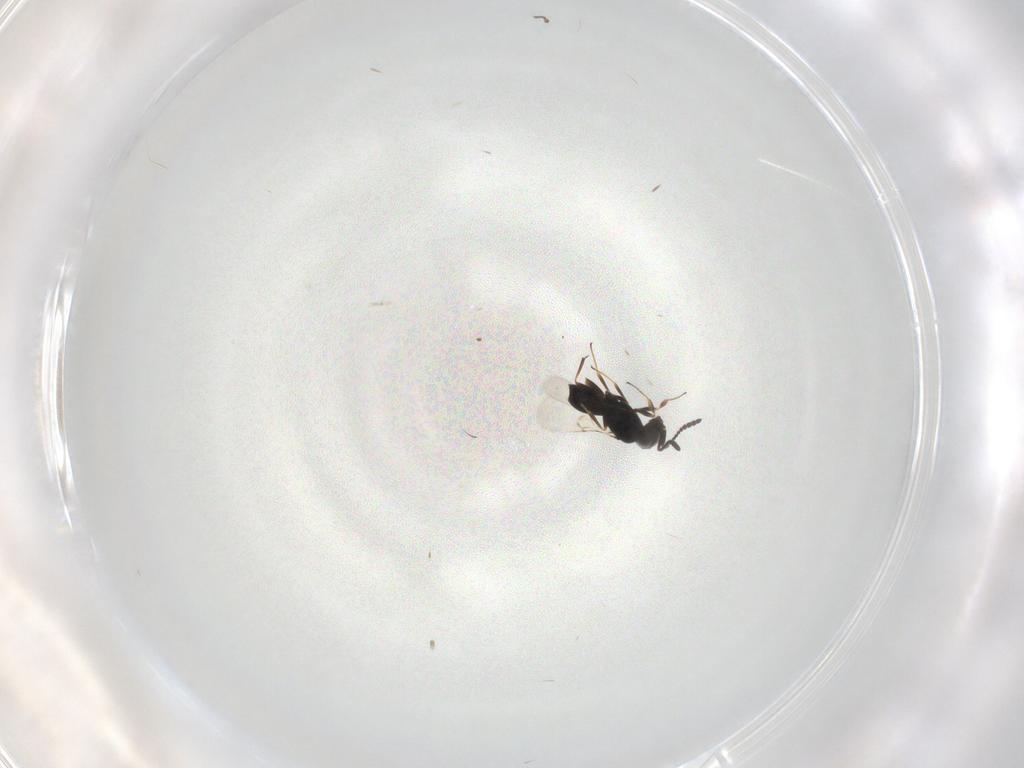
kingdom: Animalia
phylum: Arthropoda
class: Insecta
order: Hymenoptera
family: Scelionidae
